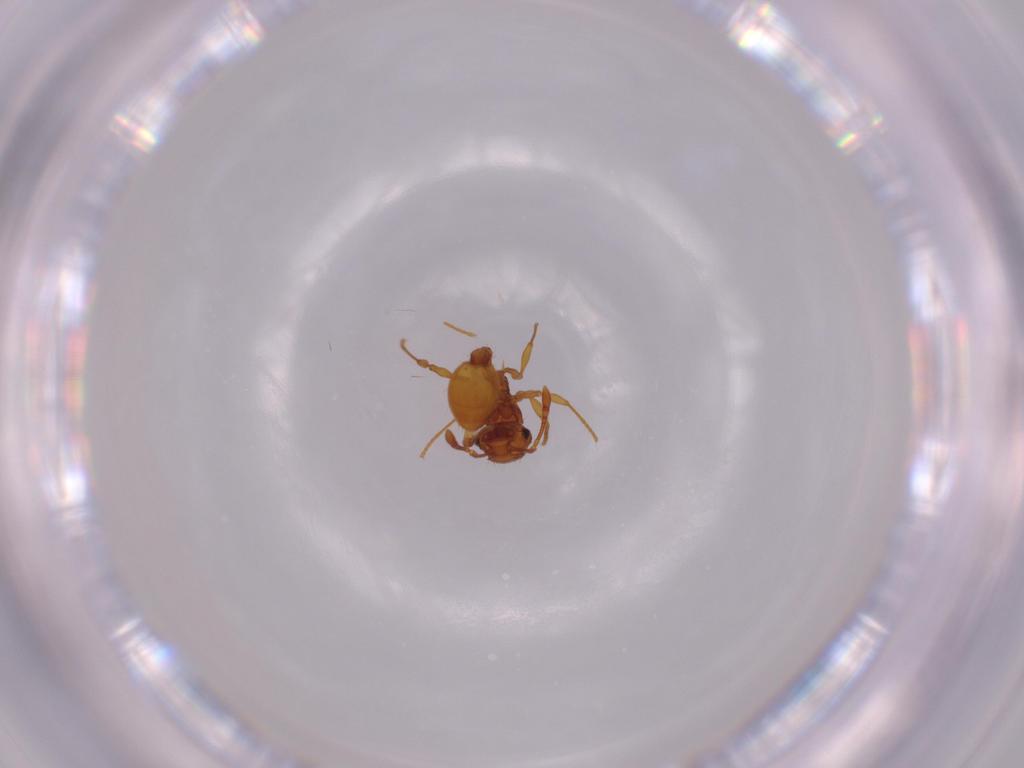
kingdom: Animalia
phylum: Arthropoda
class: Insecta
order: Hymenoptera
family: Formicidae
